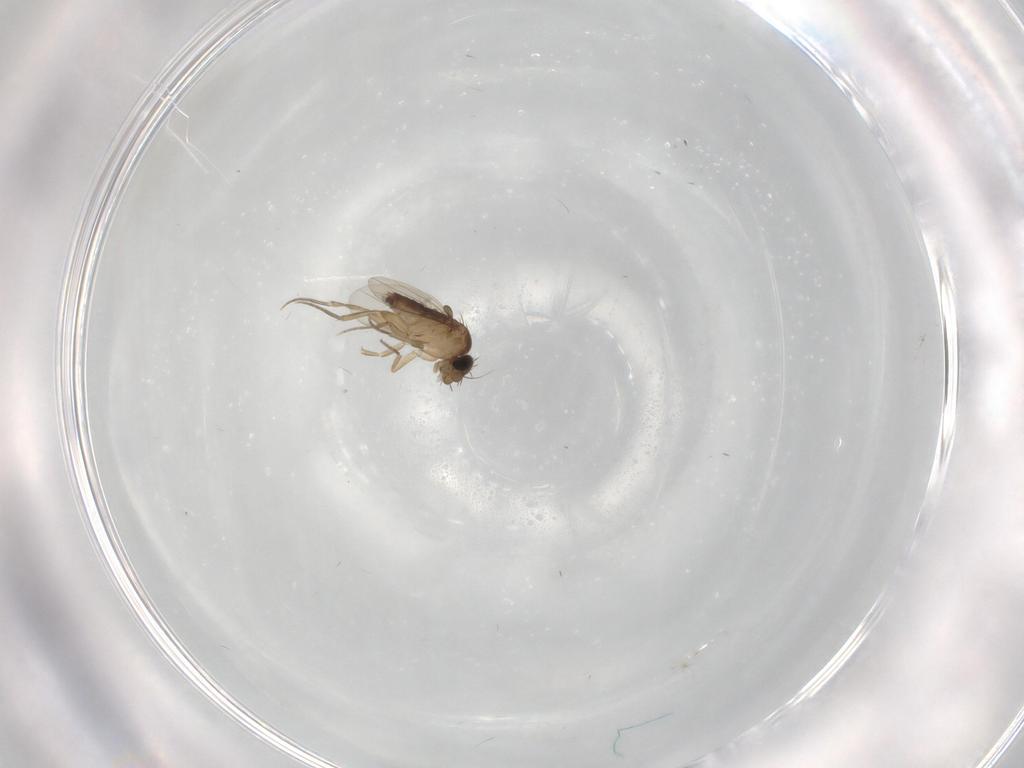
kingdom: Animalia
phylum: Arthropoda
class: Insecta
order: Diptera
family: Phoridae
